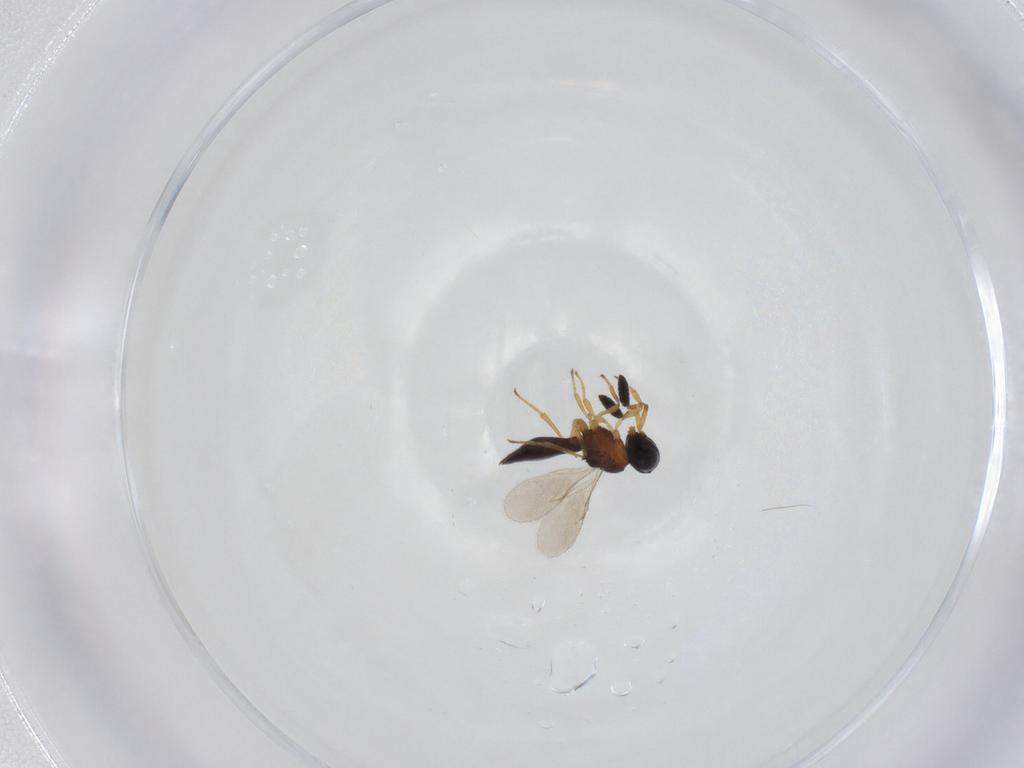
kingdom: Animalia
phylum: Arthropoda
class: Insecta
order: Hymenoptera
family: Scelionidae
